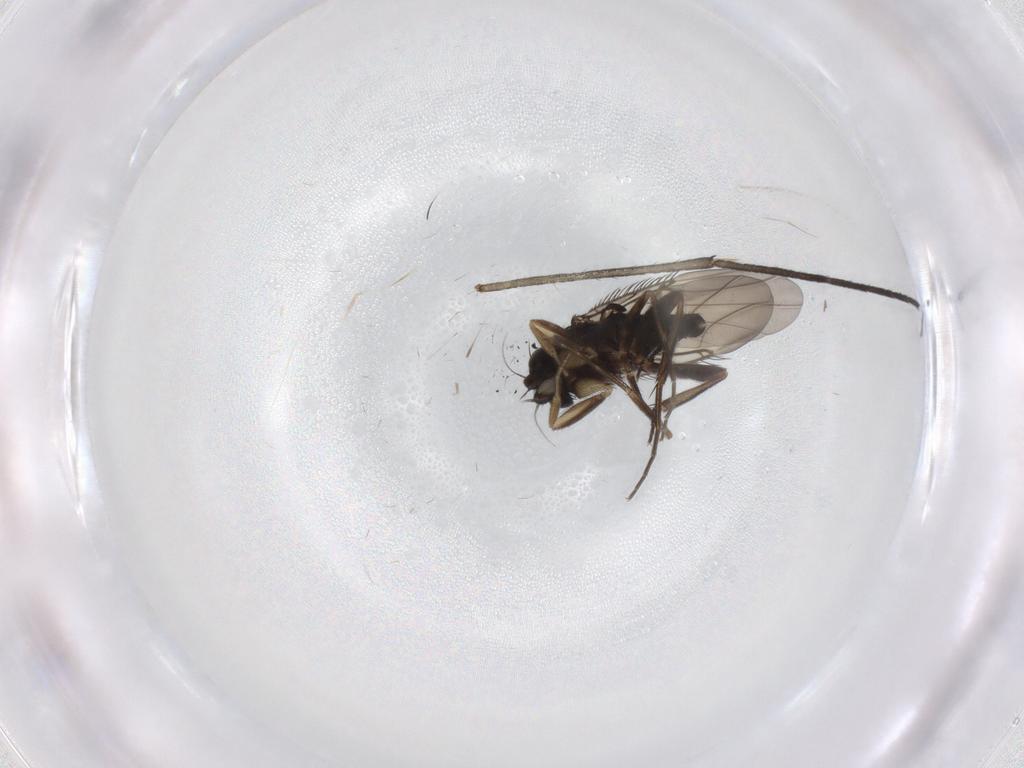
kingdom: Animalia
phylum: Arthropoda
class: Insecta
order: Diptera
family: Phoridae
